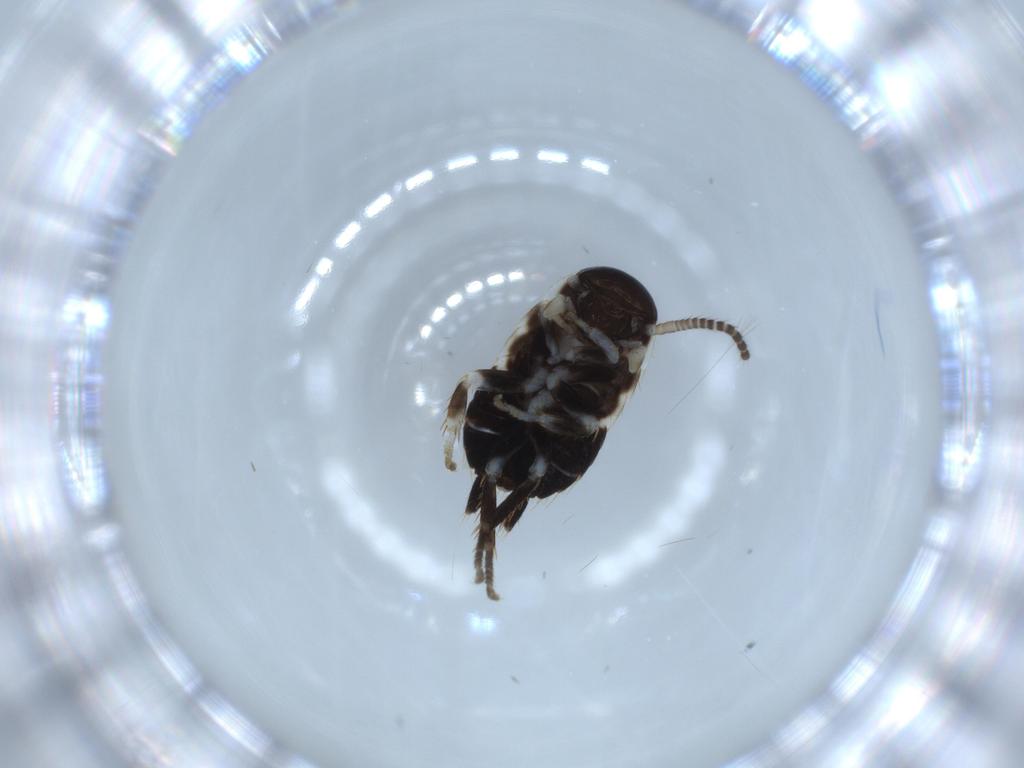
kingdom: Animalia
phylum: Arthropoda
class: Insecta
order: Blattodea
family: Ectobiidae
